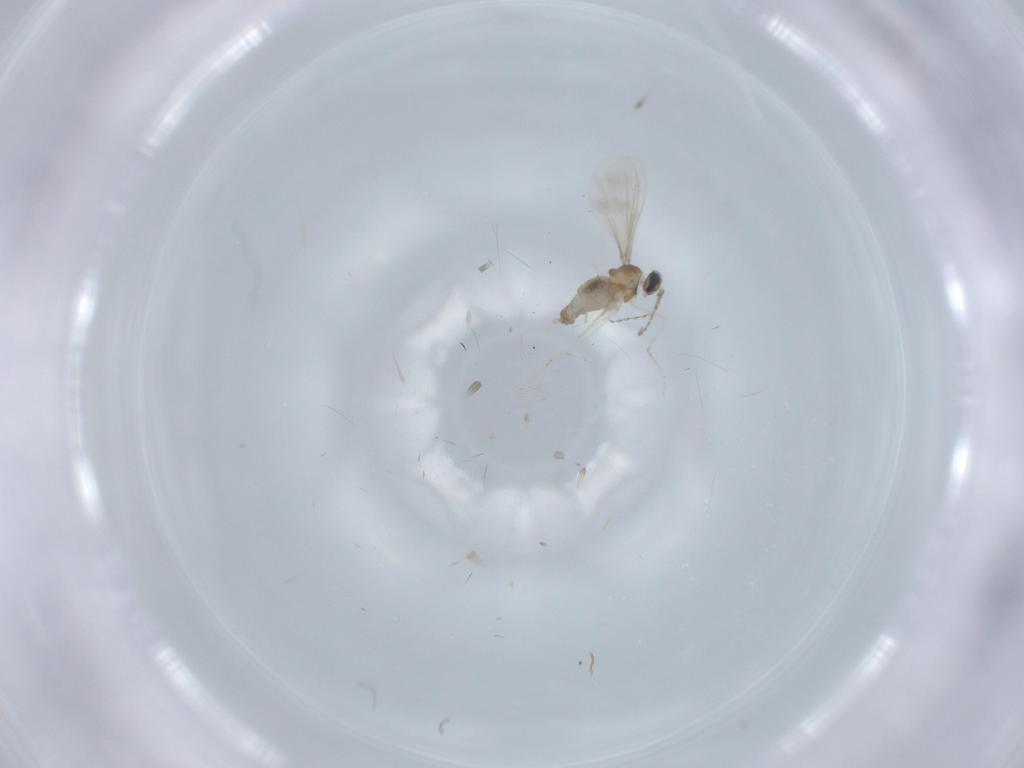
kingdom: Animalia
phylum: Arthropoda
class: Insecta
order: Diptera
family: Cecidomyiidae
